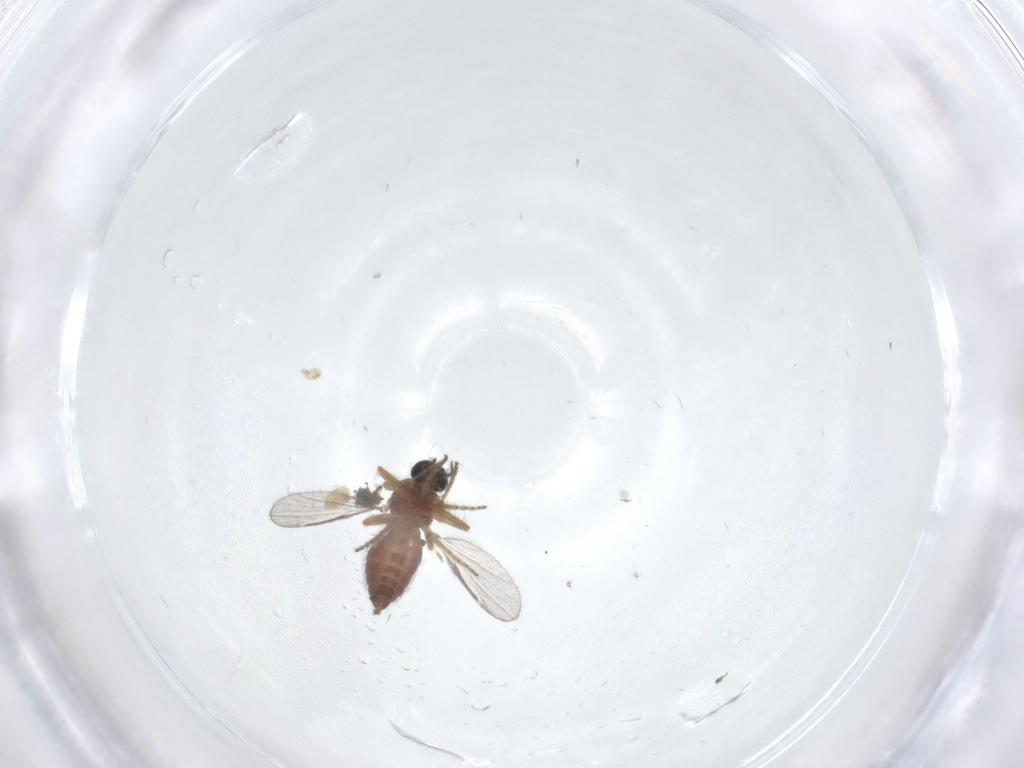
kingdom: Animalia
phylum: Arthropoda
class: Insecta
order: Diptera
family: Ceratopogonidae
